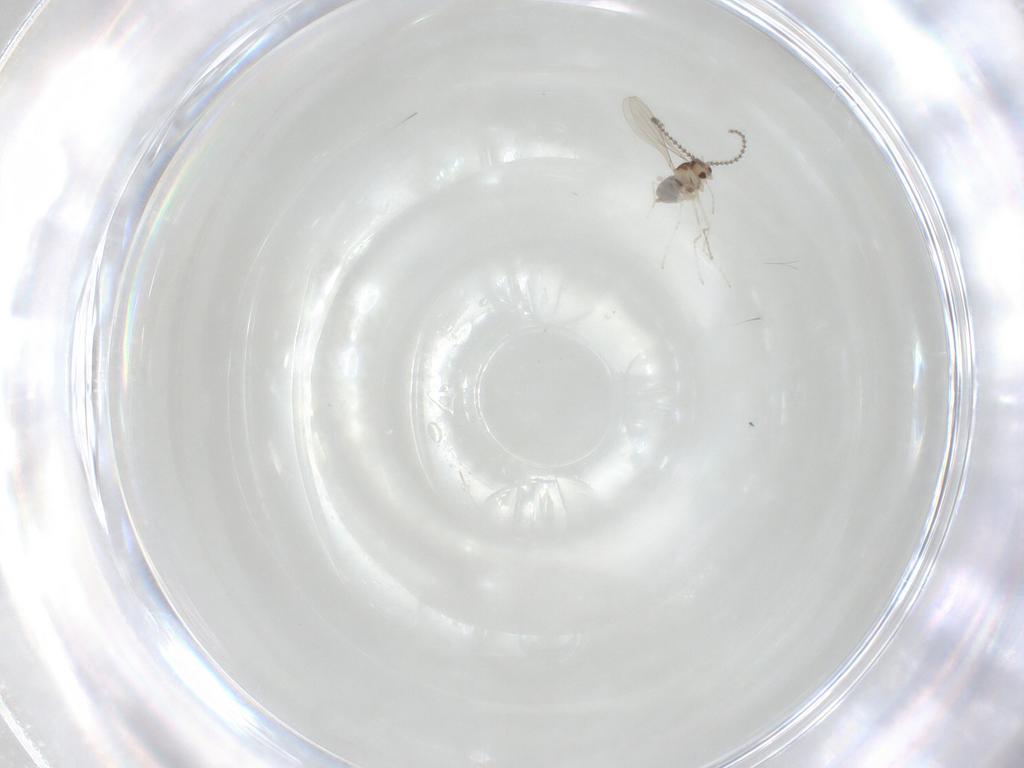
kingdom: Animalia
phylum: Arthropoda
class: Insecta
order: Diptera
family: Cecidomyiidae
